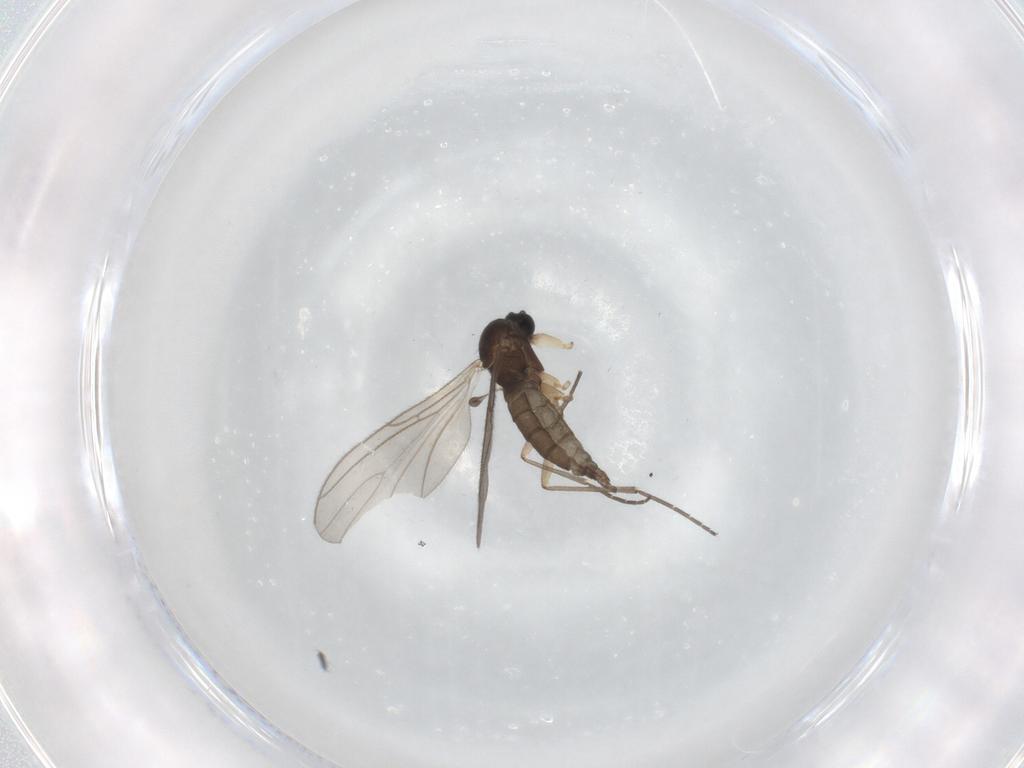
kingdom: Animalia
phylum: Arthropoda
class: Insecta
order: Diptera
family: Sciaridae
